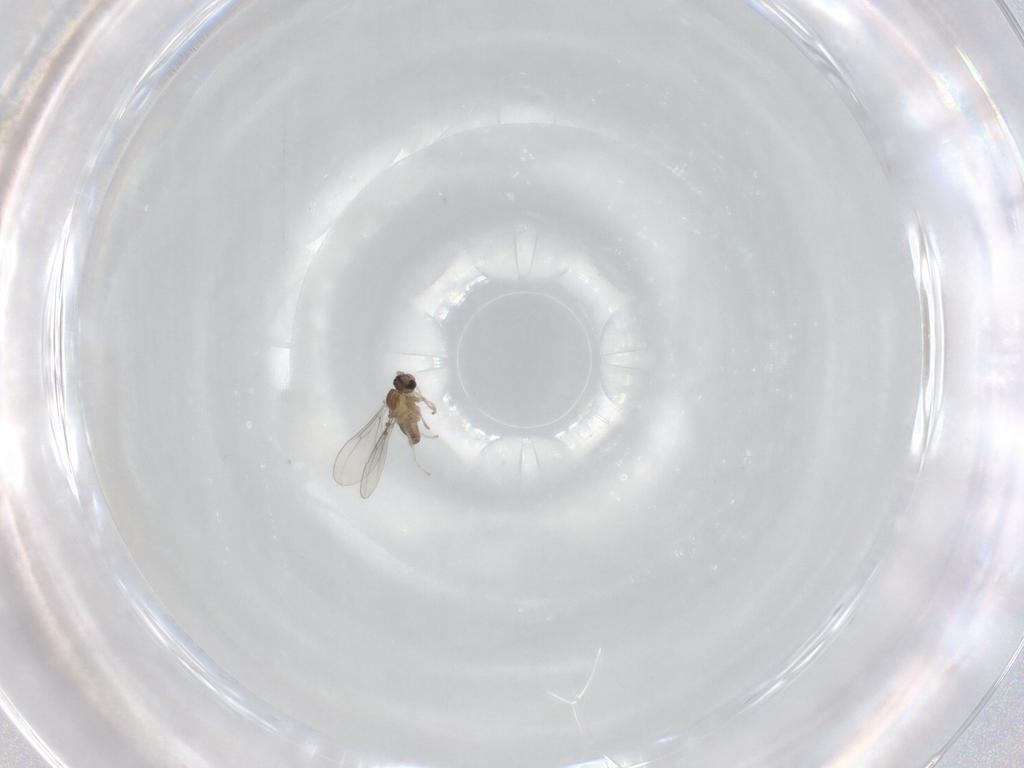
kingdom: Animalia
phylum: Arthropoda
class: Insecta
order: Diptera
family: Cecidomyiidae
